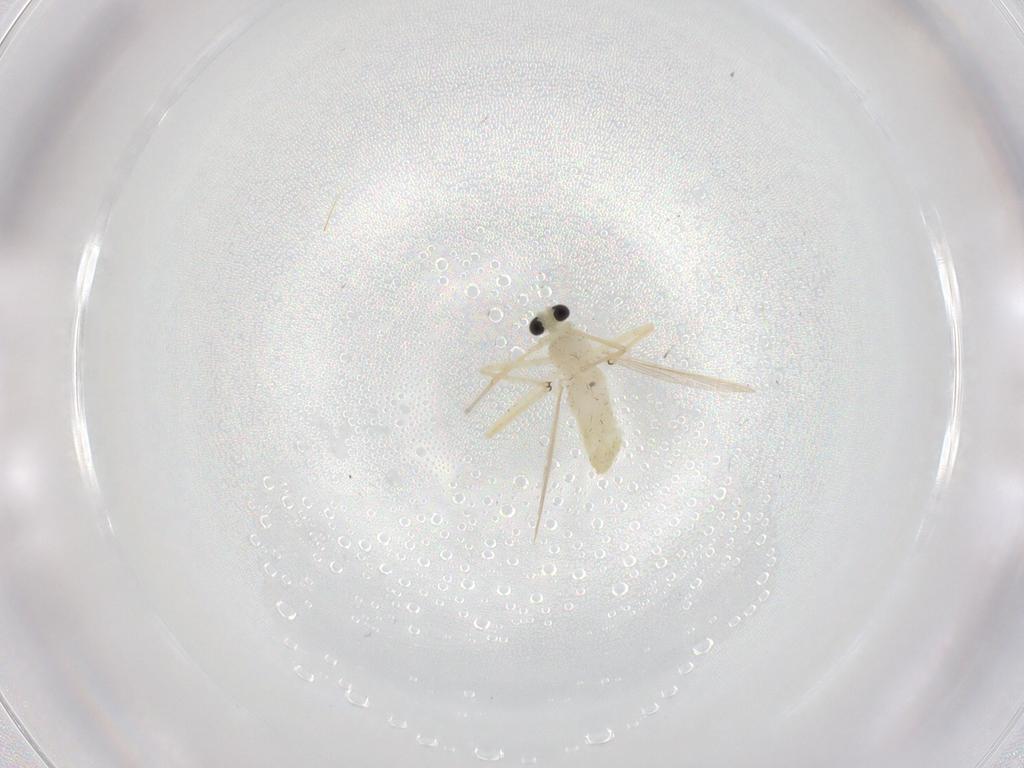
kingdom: Animalia
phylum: Arthropoda
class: Insecta
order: Diptera
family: Chironomidae
